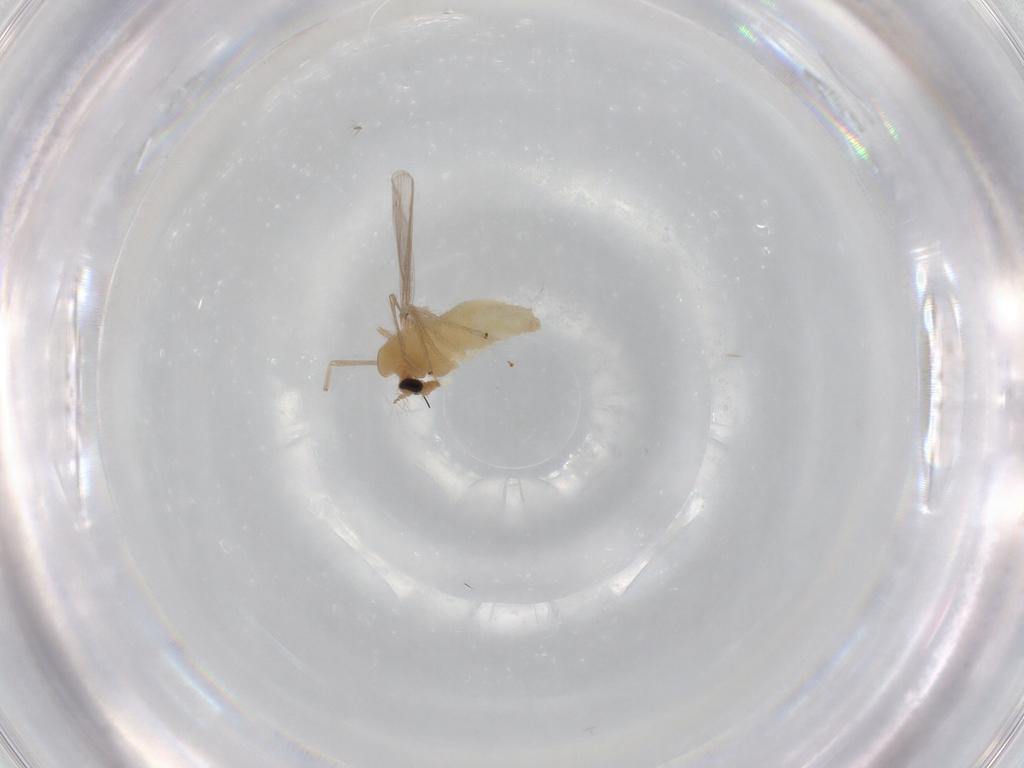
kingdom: Animalia
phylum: Arthropoda
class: Insecta
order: Diptera
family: Chironomidae
